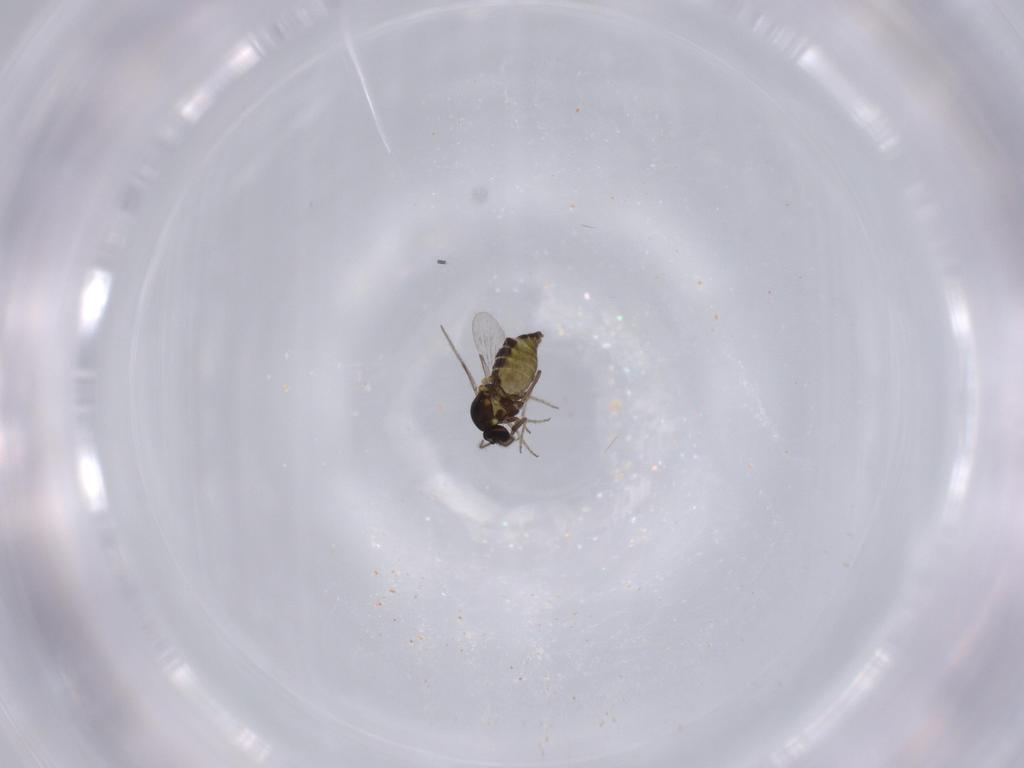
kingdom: Animalia
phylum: Arthropoda
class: Insecta
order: Diptera
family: Ceratopogonidae
